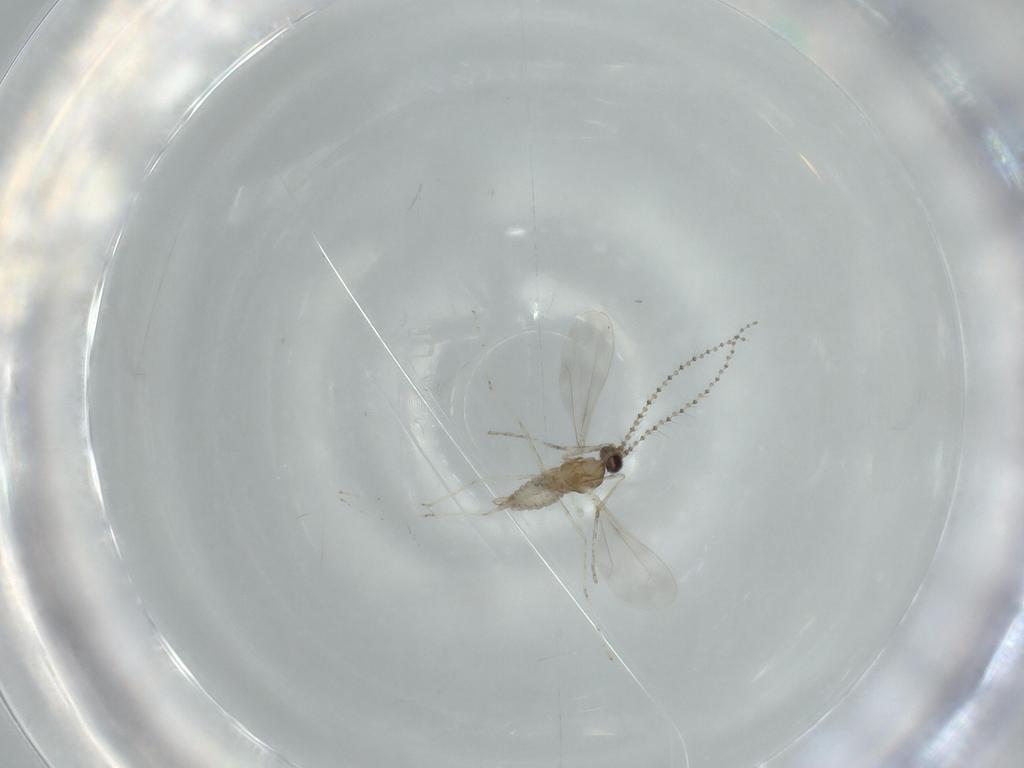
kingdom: Animalia
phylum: Arthropoda
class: Insecta
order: Diptera
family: Cecidomyiidae
